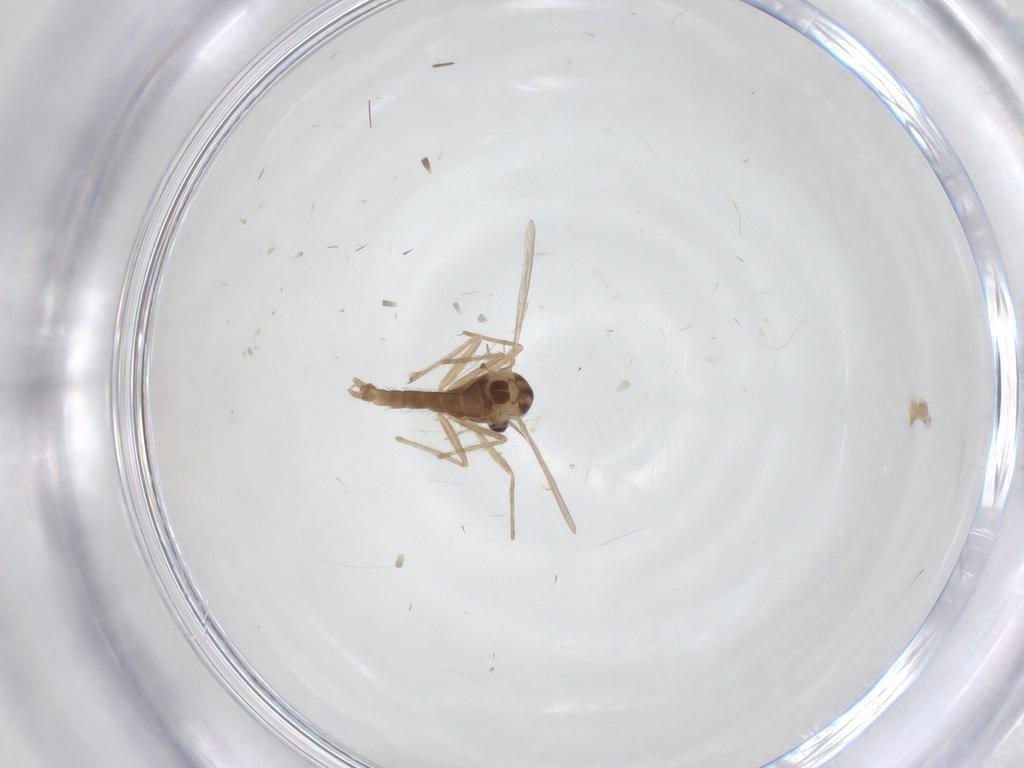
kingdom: Animalia
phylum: Arthropoda
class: Insecta
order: Diptera
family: Chironomidae
